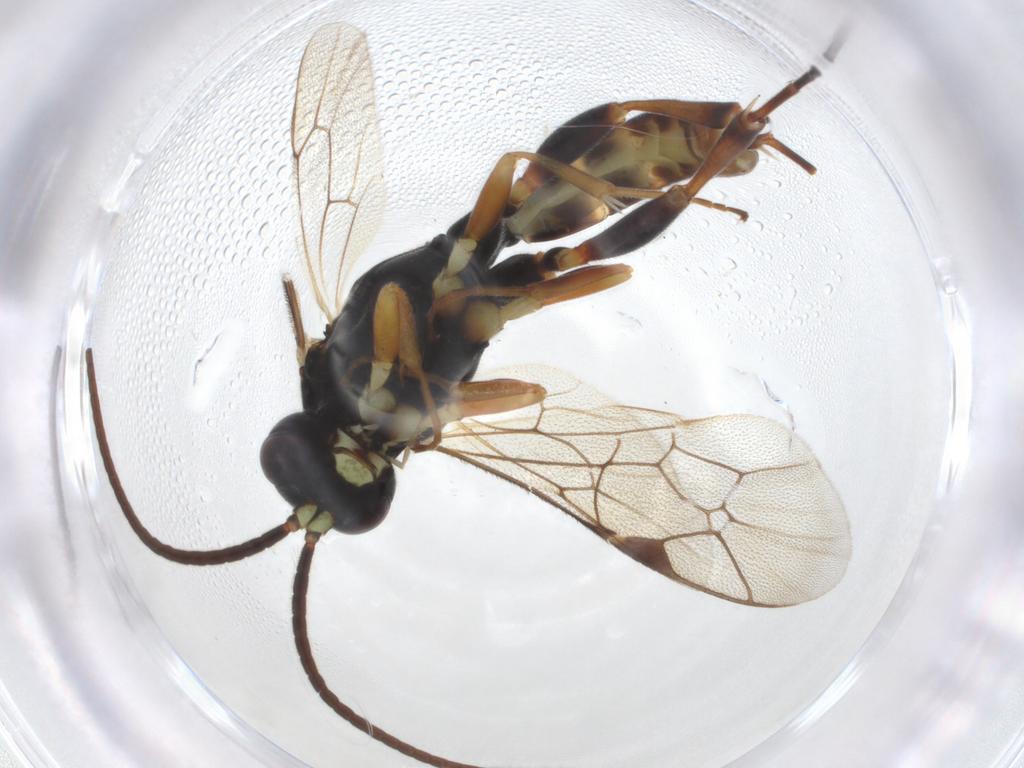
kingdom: Animalia
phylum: Arthropoda
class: Insecta
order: Hymenoptera
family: Ichneumonidae
